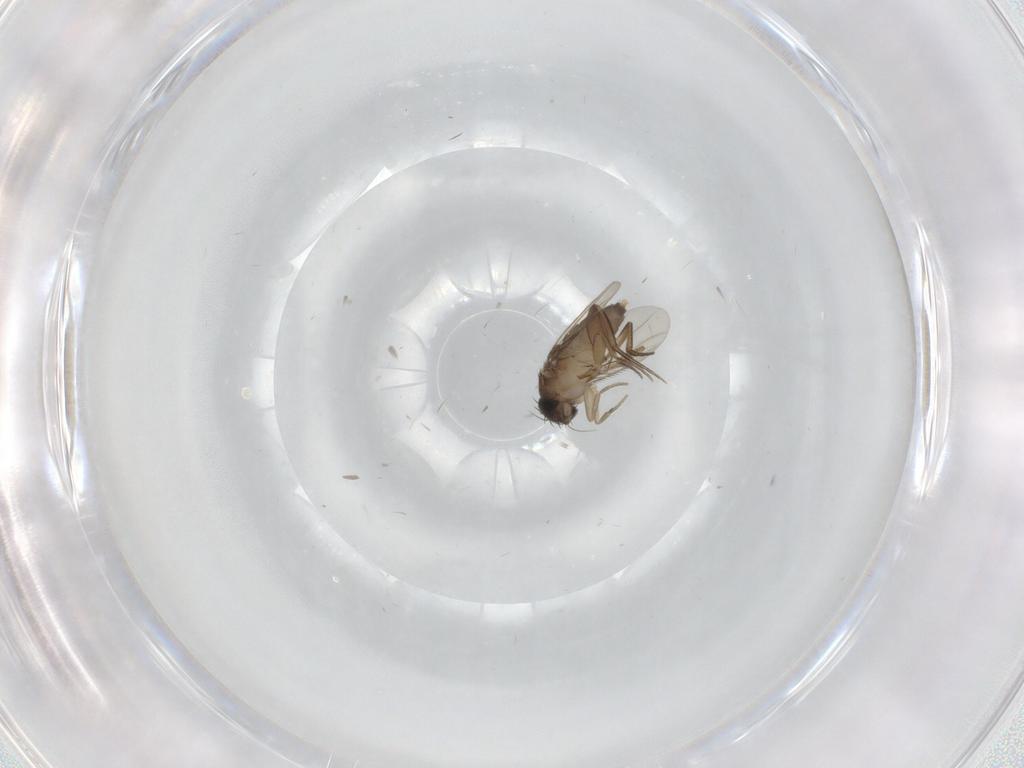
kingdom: Animalia
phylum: Arthropoda
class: Insecta
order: Diptera
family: Phoridae
